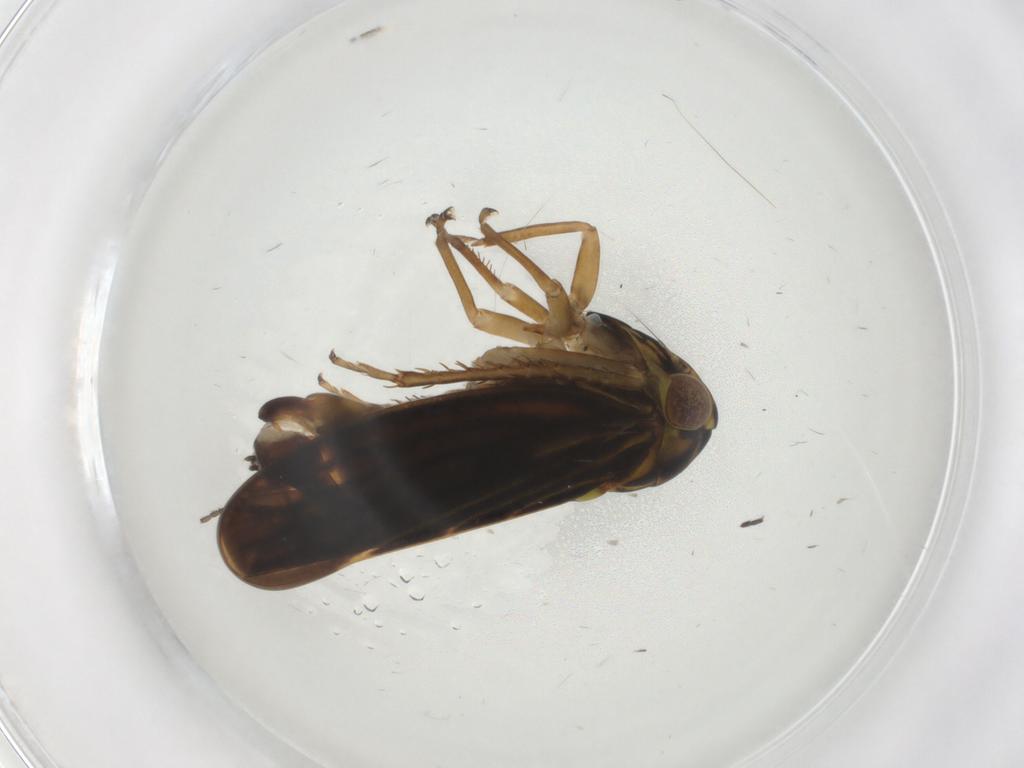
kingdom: Animalia
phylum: Arthropoda
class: Insecta
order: Hemiptera
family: Cicadellidae
